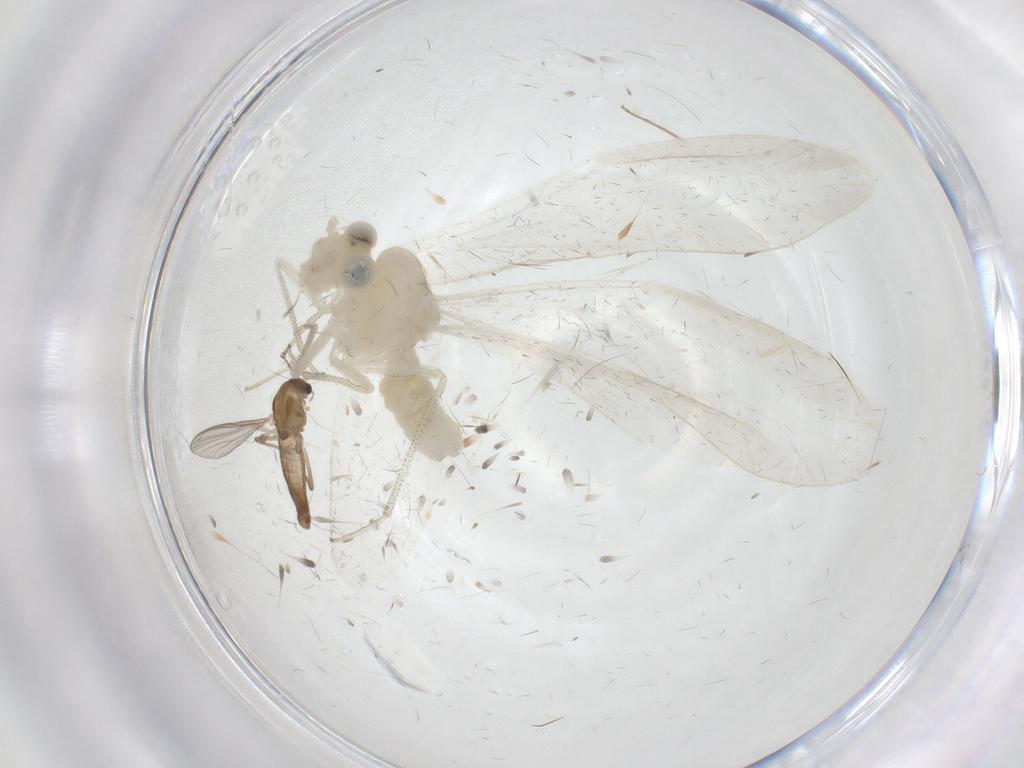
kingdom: Animalia
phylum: Arthropoda
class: Insecta
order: Diptera
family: Chironomidae
